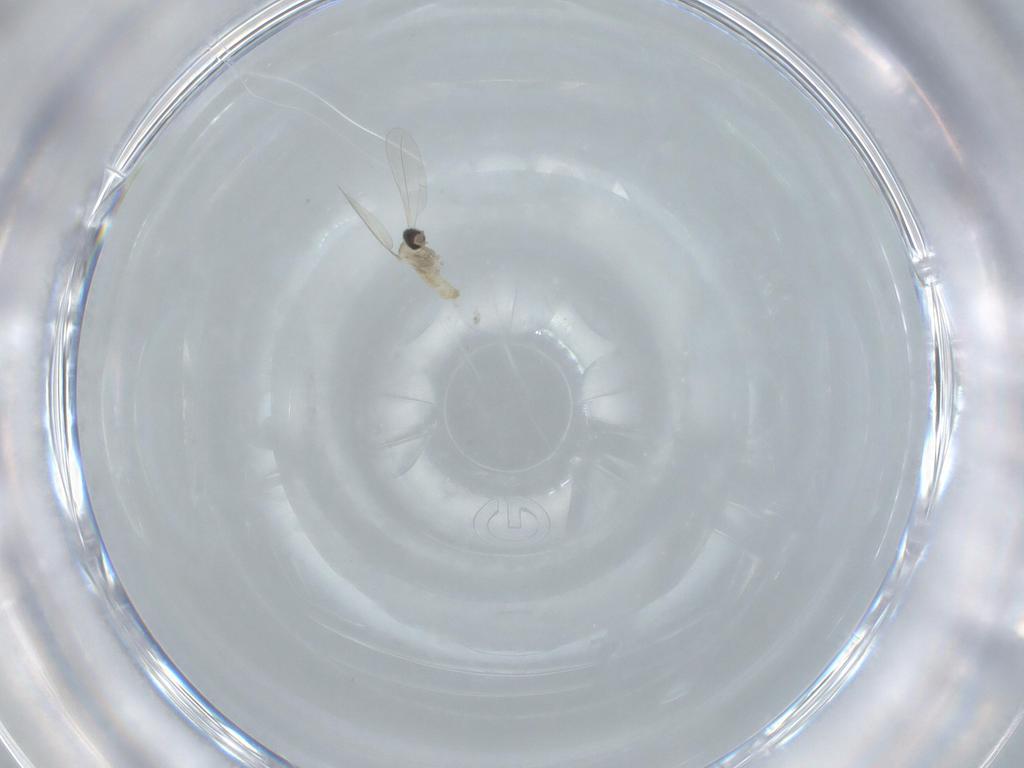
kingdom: Animalia
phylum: Arthropoda
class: Insecta
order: Diptera
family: Cecidomyiidae
